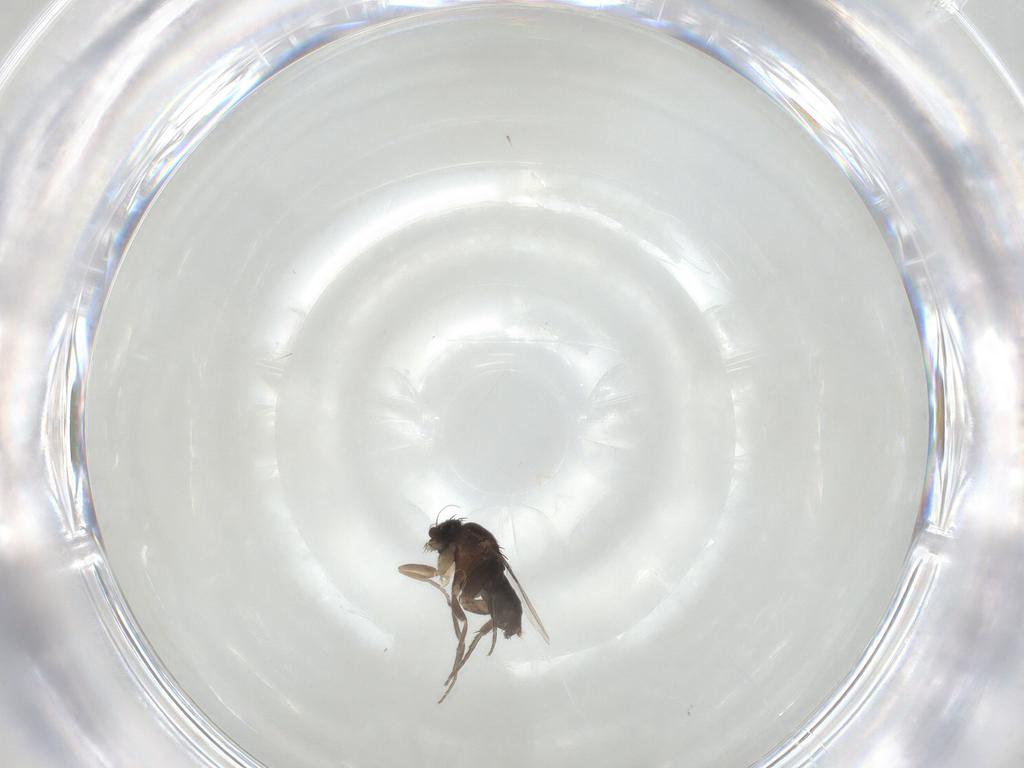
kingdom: Animalia
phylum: Arthropoda
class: Insecta
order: Diptera
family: Phoridae
